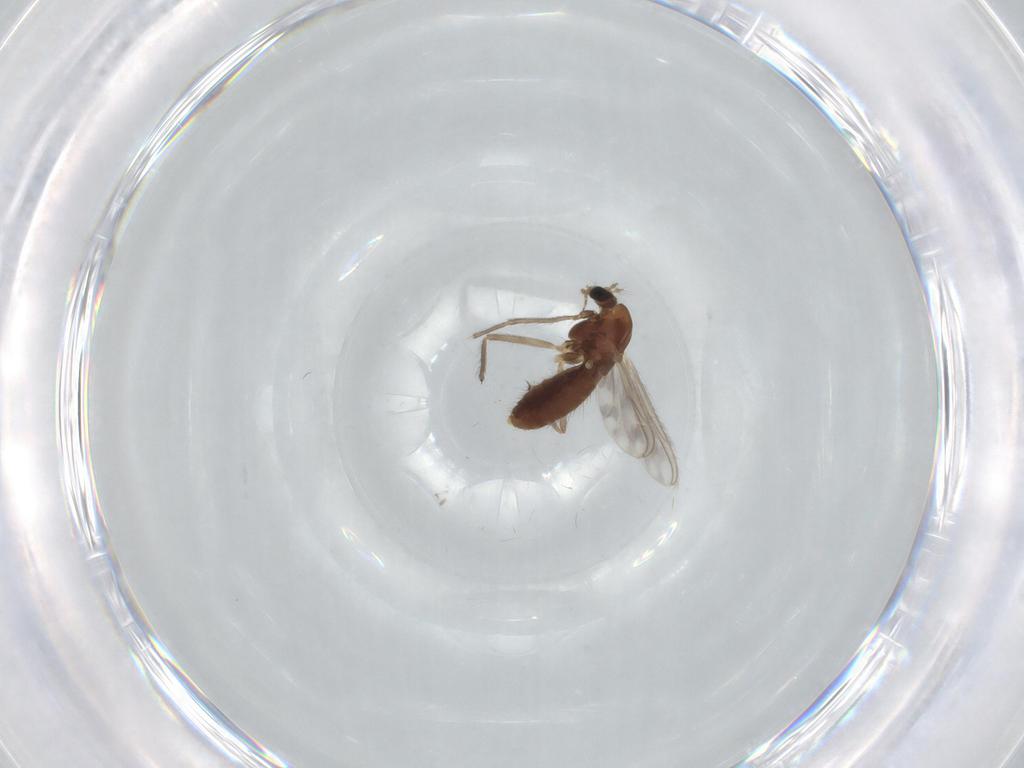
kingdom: Animalia
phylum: Arthropoda
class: Insecta
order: Diptera
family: Chironomidae
